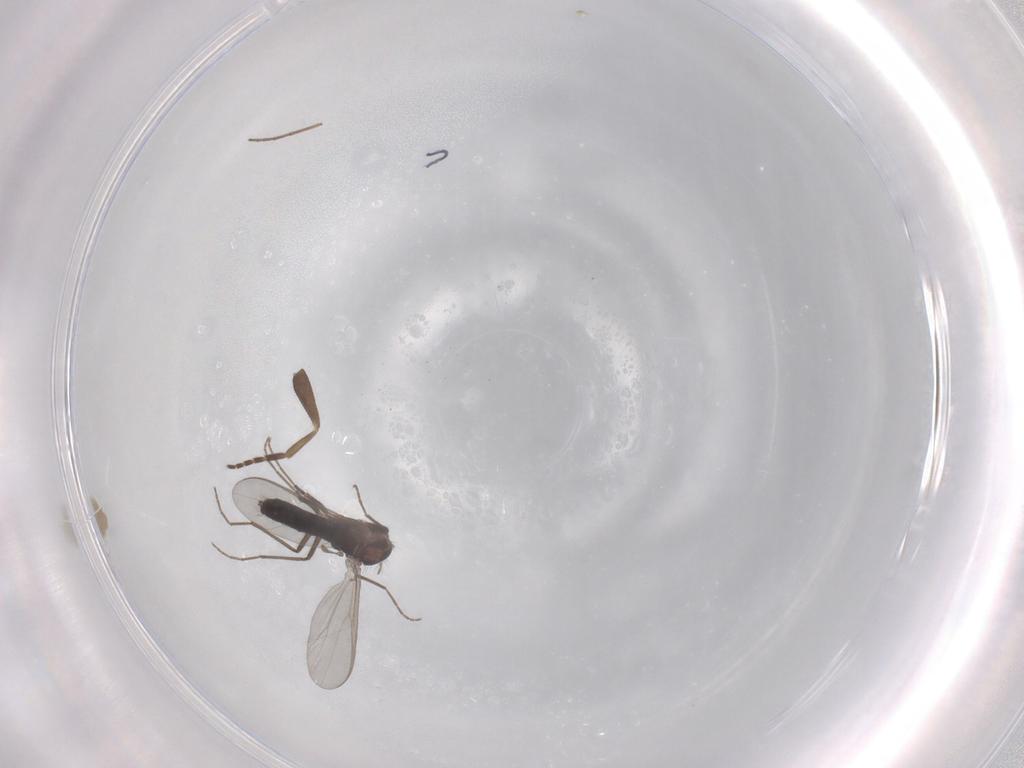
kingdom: Animalia
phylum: Arthropoda
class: Insecta
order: Diptera
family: Chironomidae
